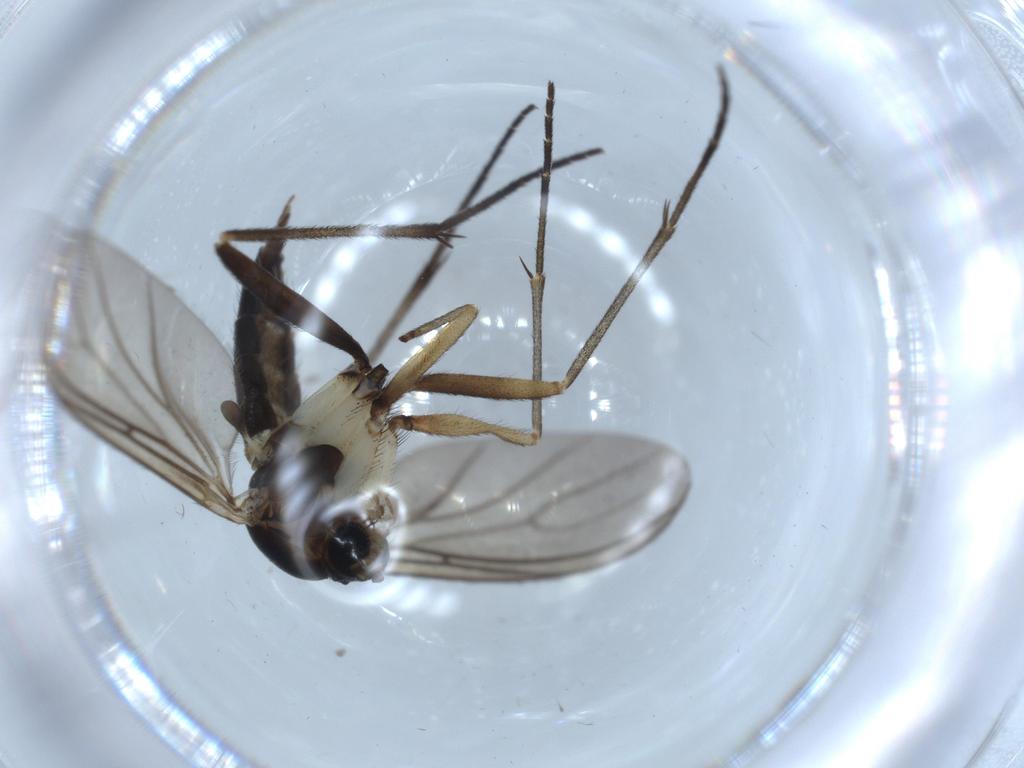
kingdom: Animalia
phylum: Arthropoda
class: Insecta
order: Diptera
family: Sciaridae
